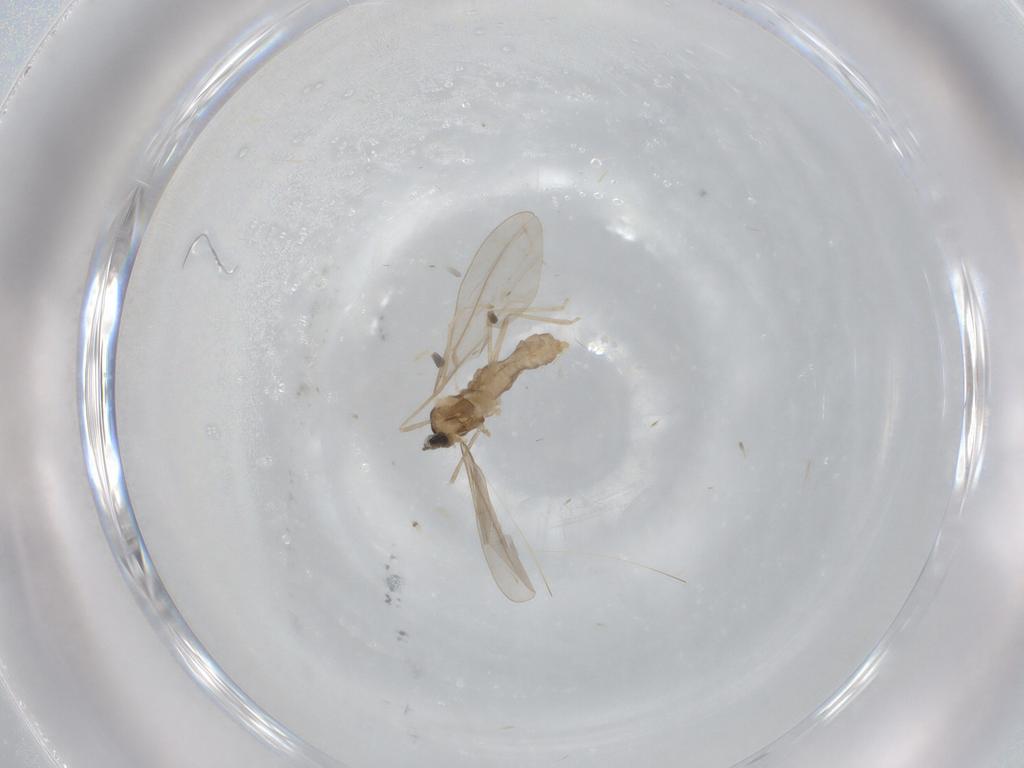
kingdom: Animalia
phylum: Arthropoda
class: Insecta
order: Diptera
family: Cecidomyiidae
